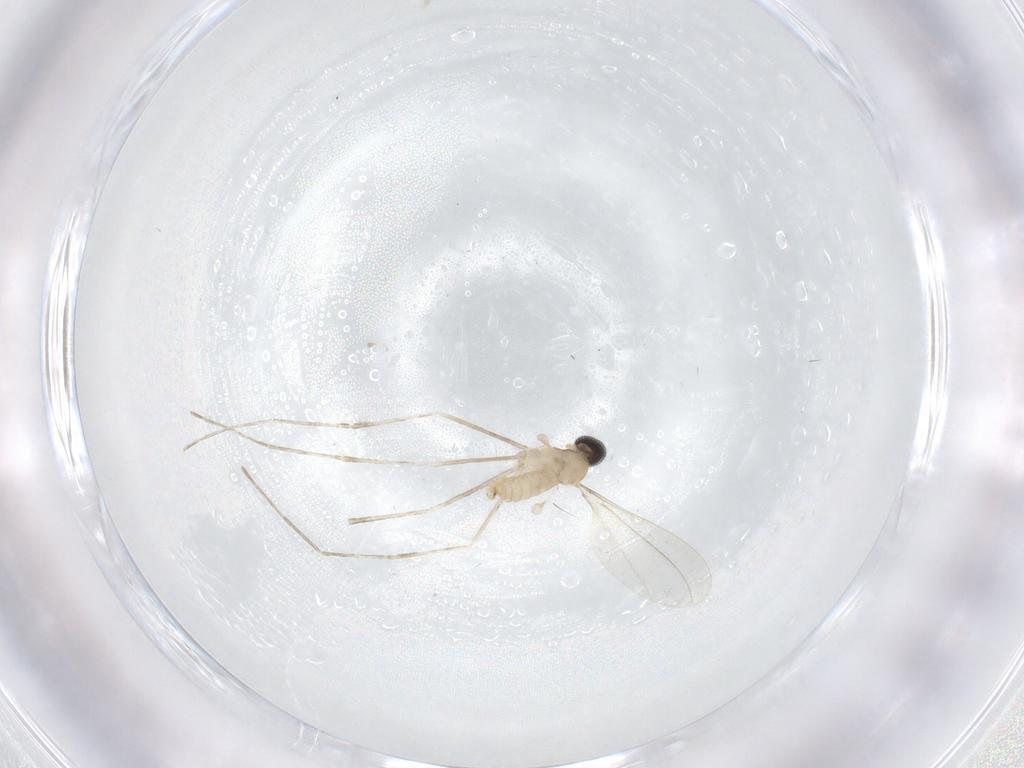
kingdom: Animalia
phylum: Arthropoda
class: Insecta
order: Diptera
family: Cecidomyiidae
